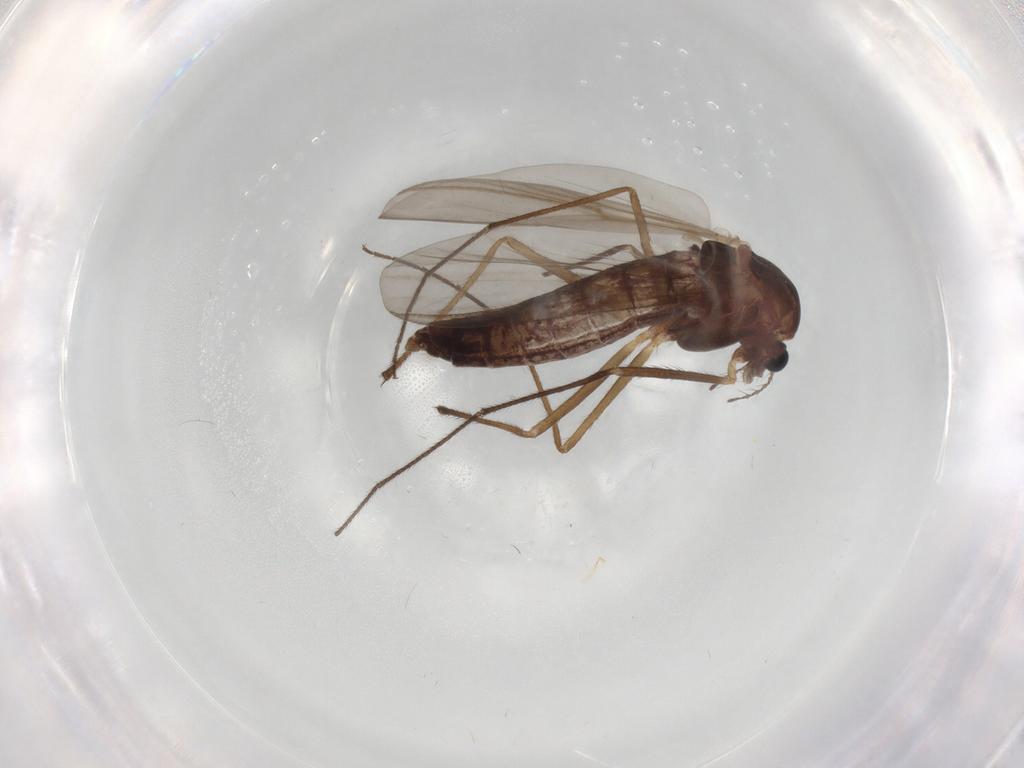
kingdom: Animalia
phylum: Arthropoda
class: Insecta
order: Diptera
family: Chironomidae
